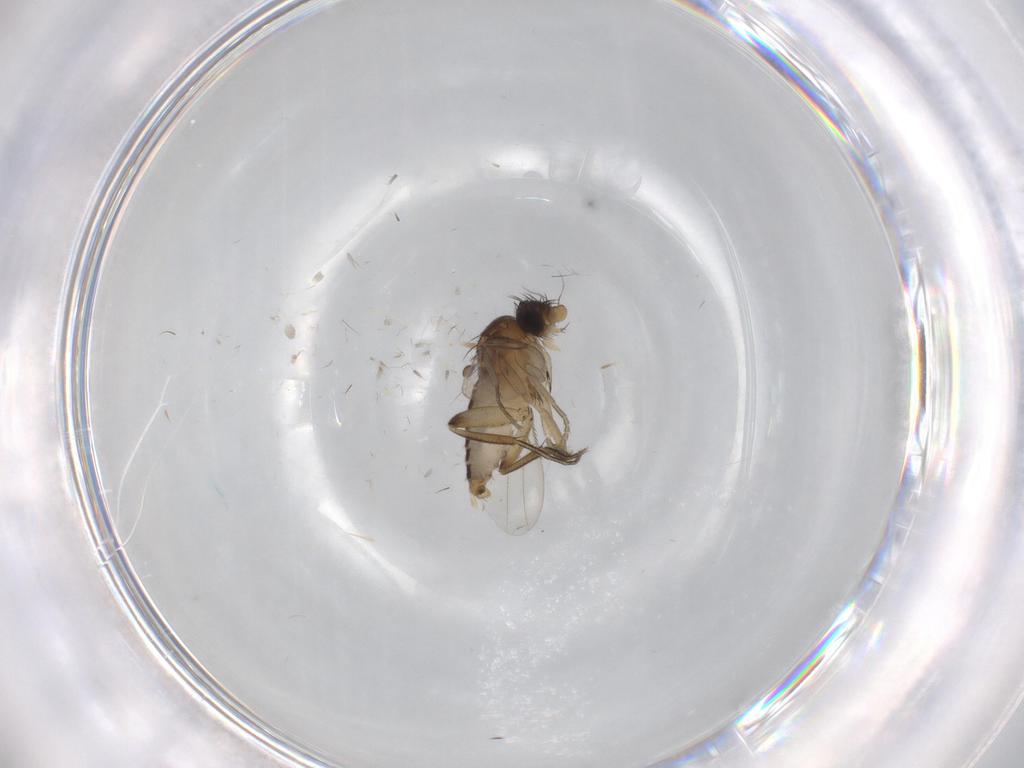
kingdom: Animalia
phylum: Arthropoda
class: Insecta
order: Diptera
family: Phoridae
